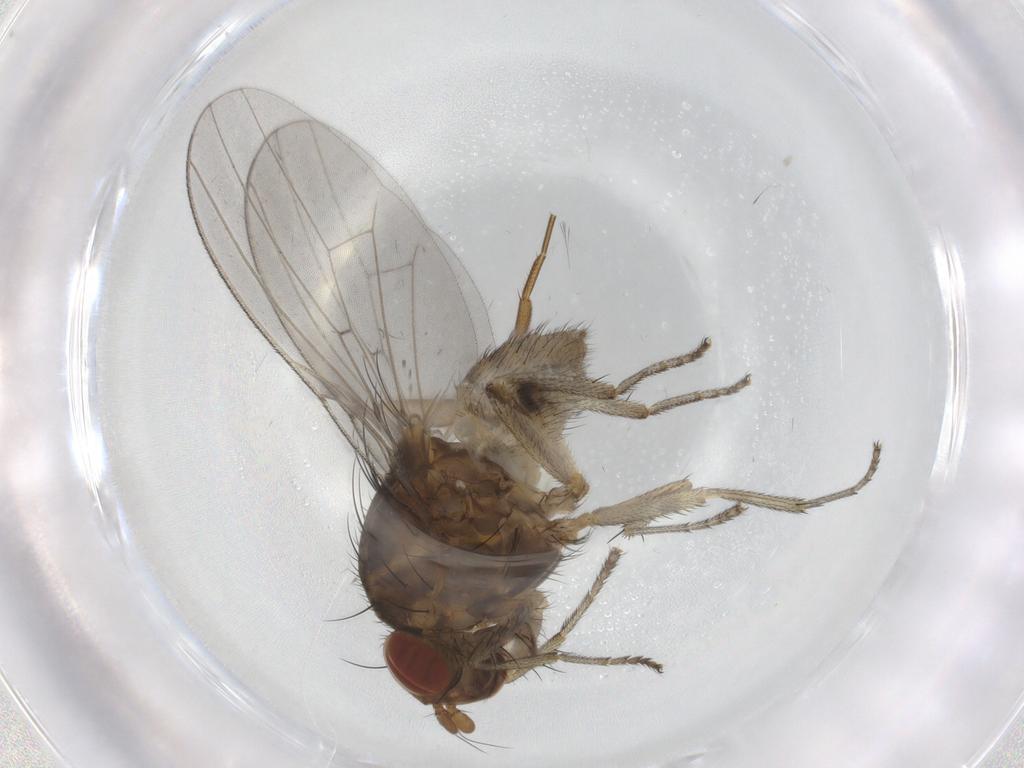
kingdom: Animalia
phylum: Arthropoda
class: Insecta
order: Diptera
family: Lauxaniidae
